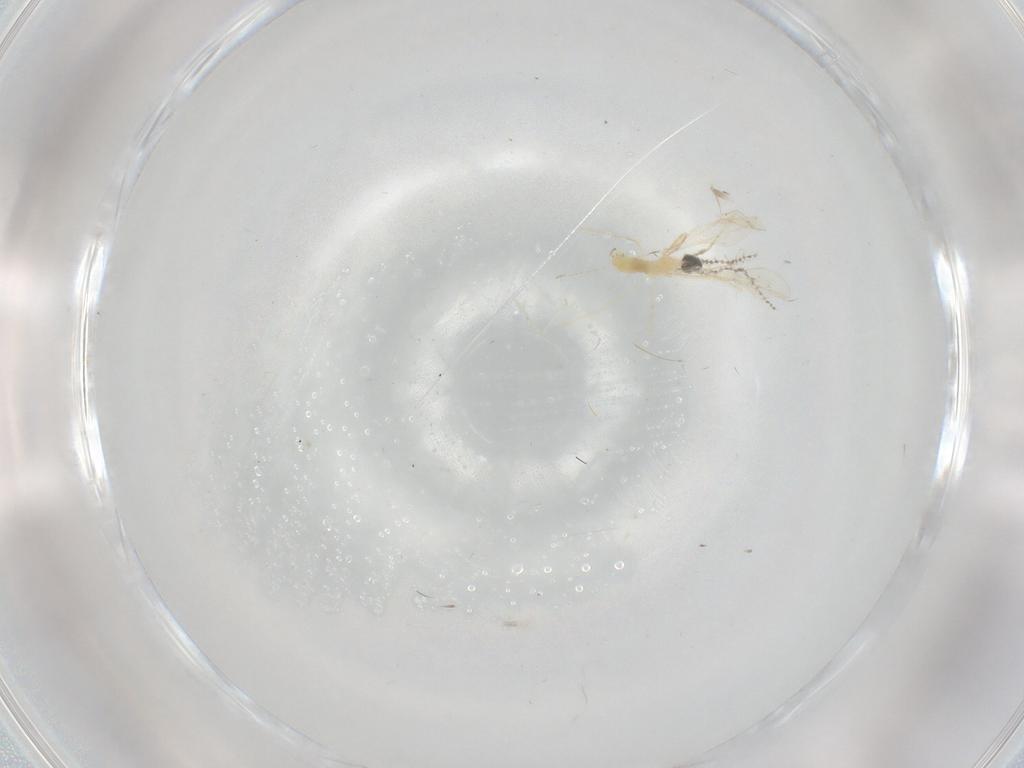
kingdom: Animalia
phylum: Arthropoda
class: Insecta
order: Diptera
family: Cecidomyiidae
